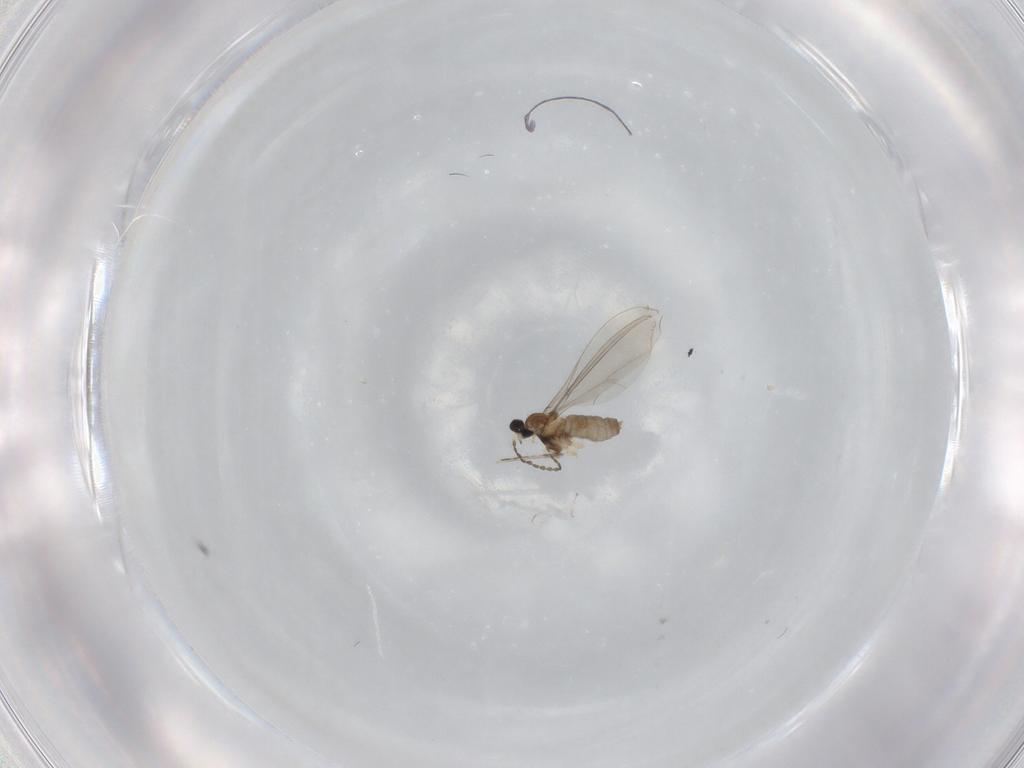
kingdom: Animalia
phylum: Arthropoda
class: Insecta
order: Diptera
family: Cecidomyiidae
